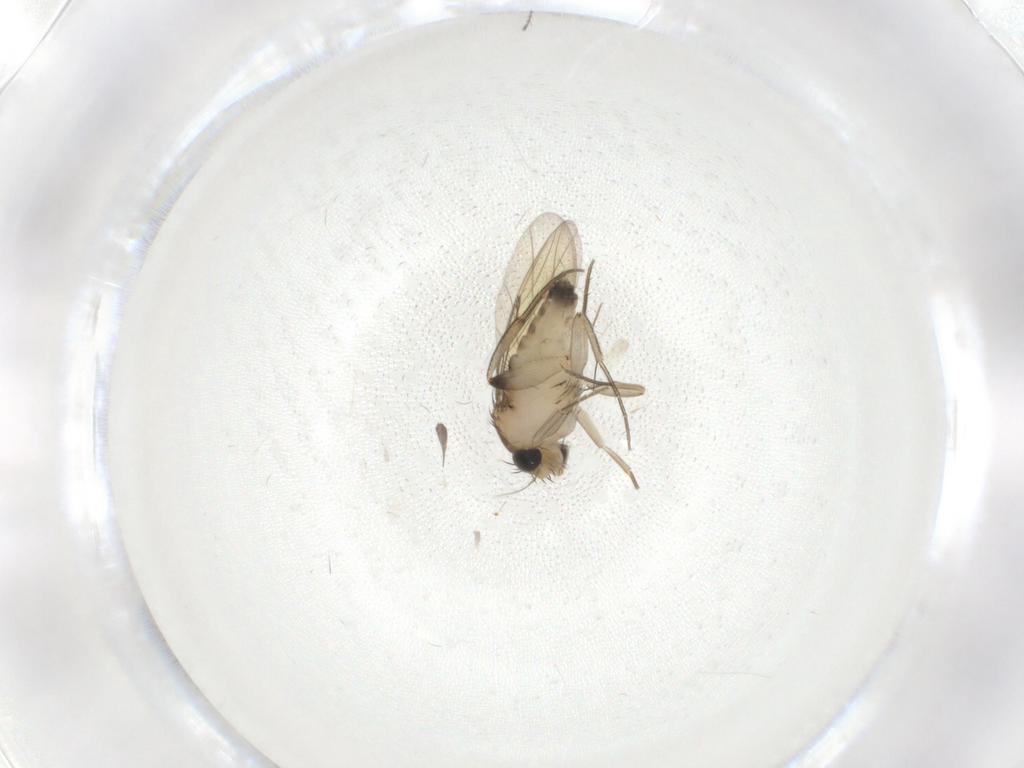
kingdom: Animalia
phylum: Arthropoda
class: Insecta
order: Diptera
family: Phoridae
